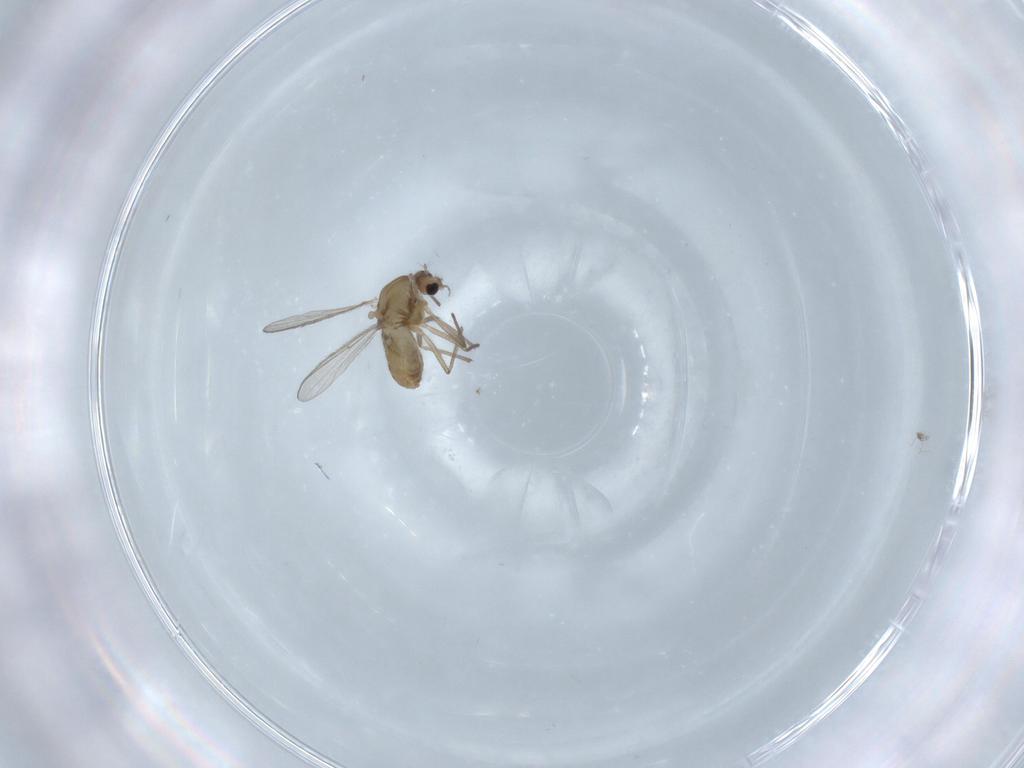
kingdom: Animalia
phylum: Arthropoda
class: Insecta
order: Diptera
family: Chironomidae
